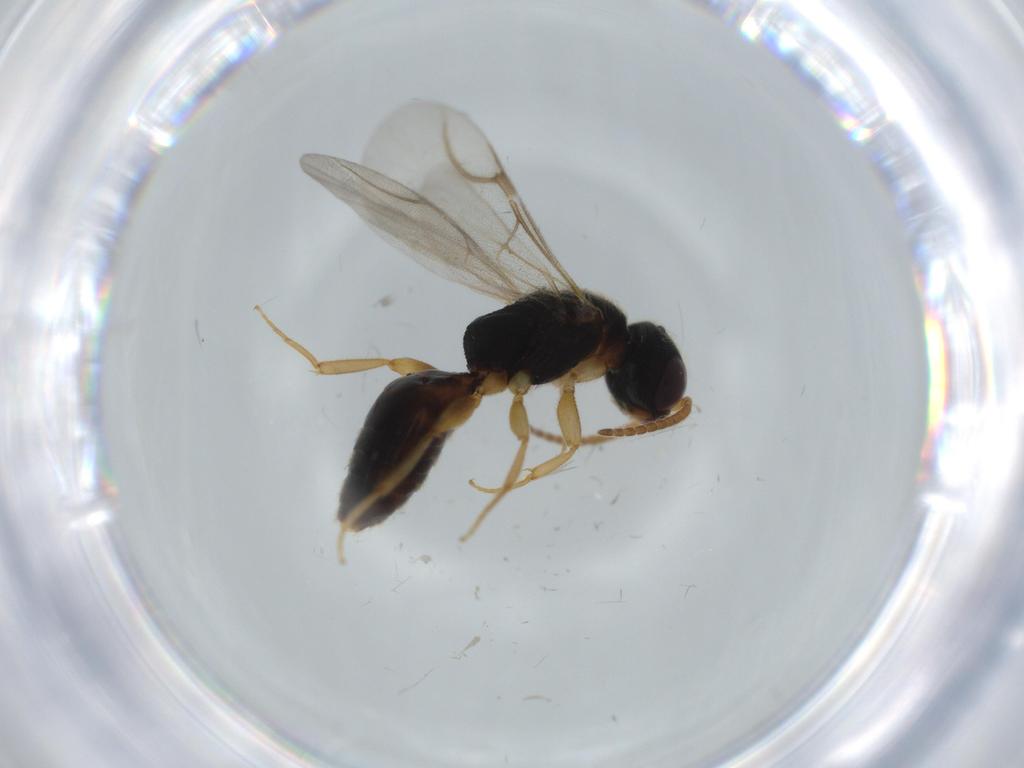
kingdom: Animalia
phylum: Arthropoda
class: Insecta
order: Hymenoptera
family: Bethylidae
